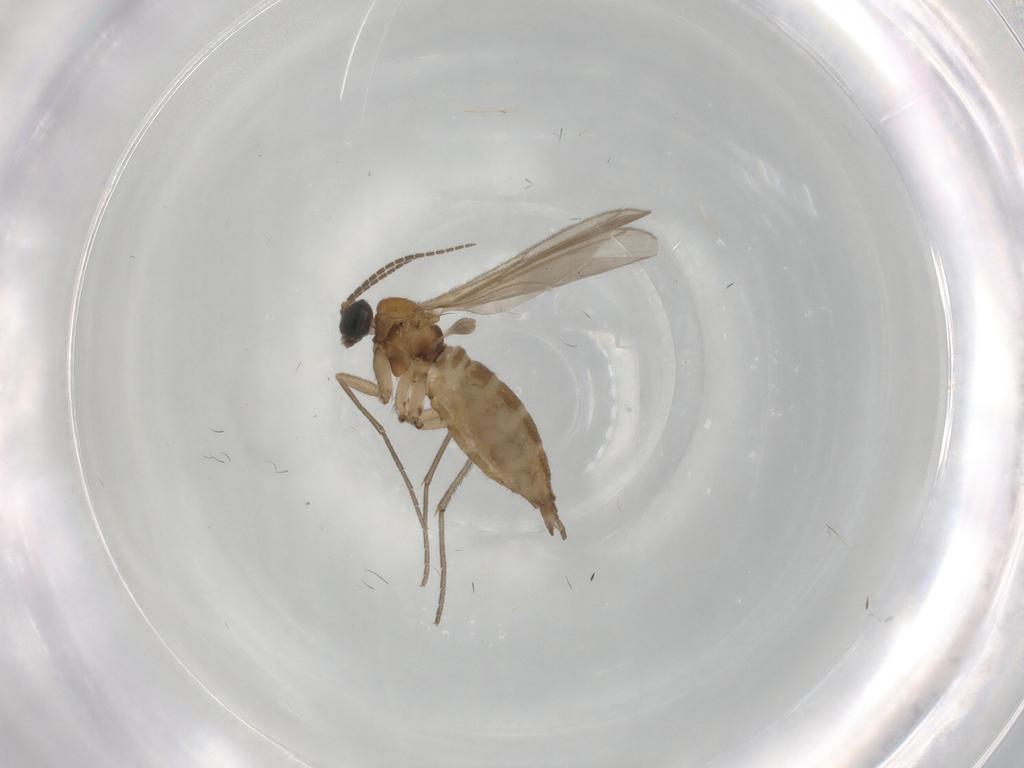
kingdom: Animalia
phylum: Arthropoda
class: Insecta
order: Diptera
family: Sciaridae
